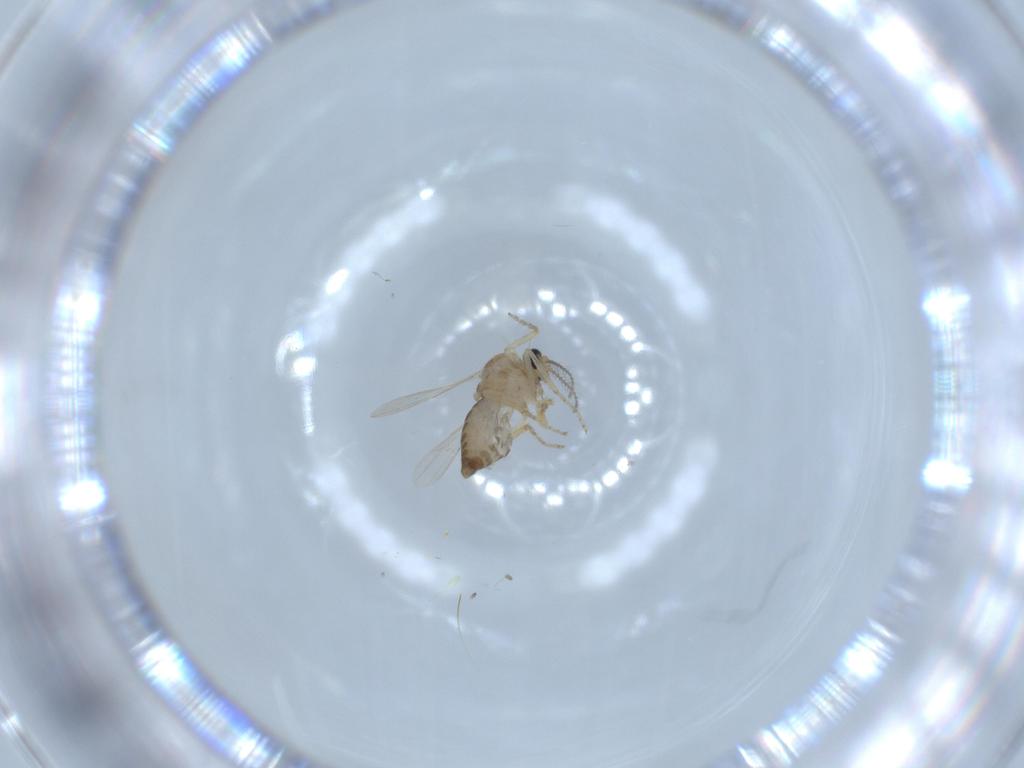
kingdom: Animalia
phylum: Arthropoda
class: Insecta
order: Diptera
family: Ceratopogonidae
